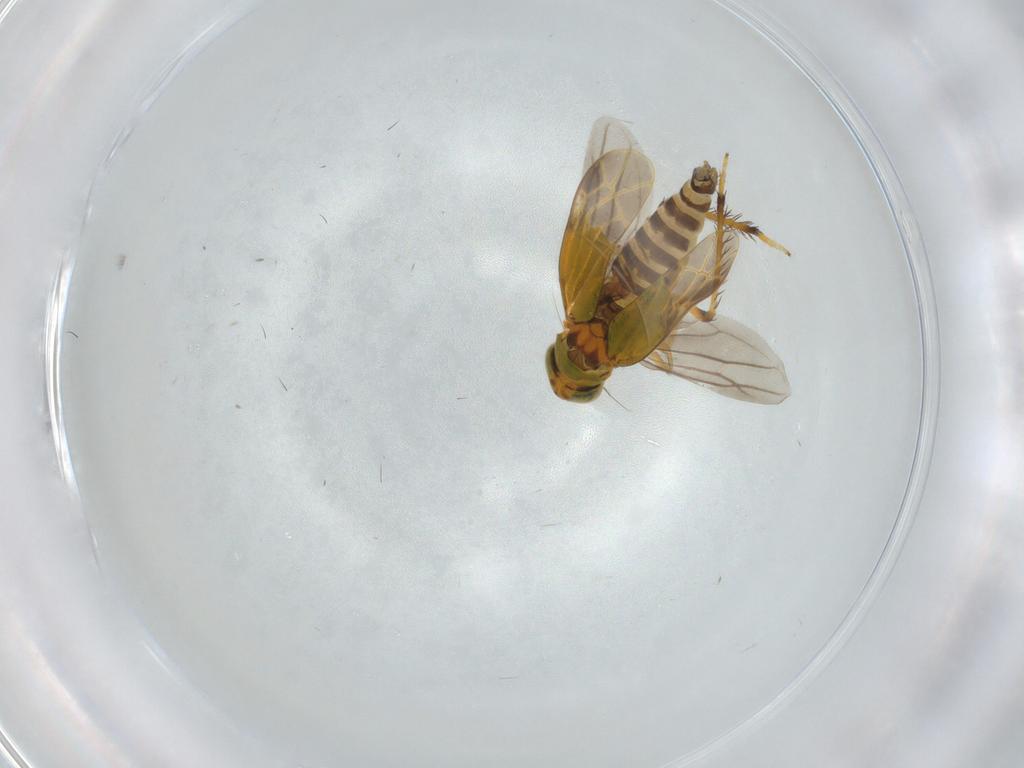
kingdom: Animalia
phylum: Arthropoda
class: Insecta
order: Hemiptera
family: Cicadellidae
